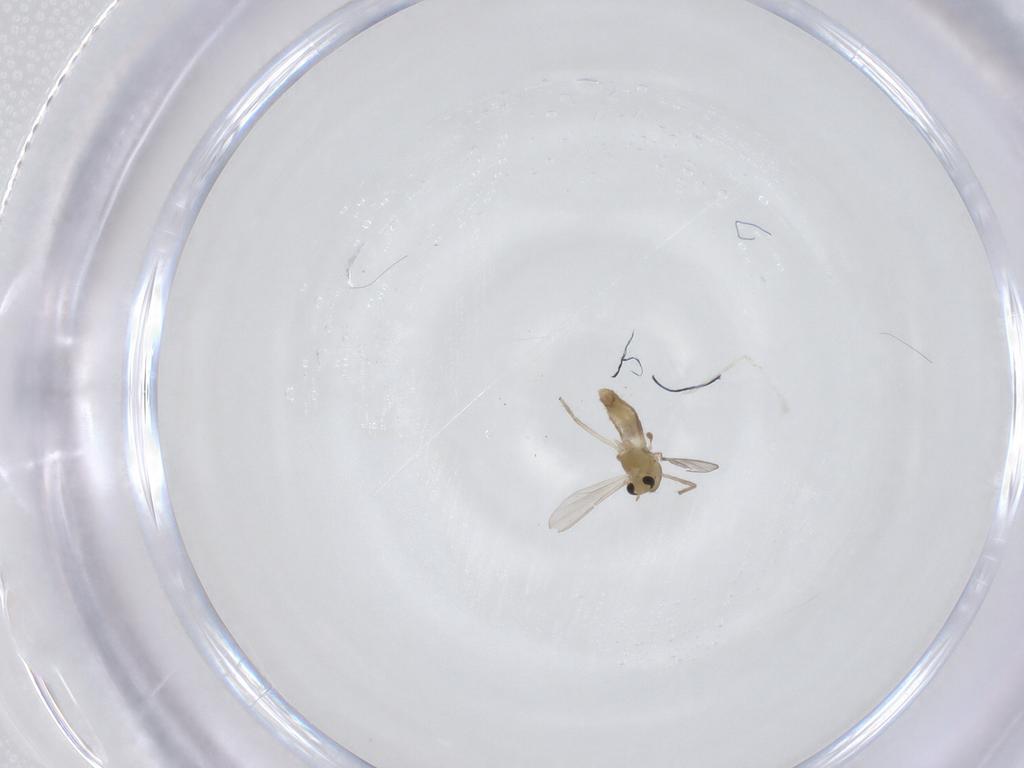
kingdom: Animalia
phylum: Arthropoda
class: Insecta
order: Diptera
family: Chironomidae
